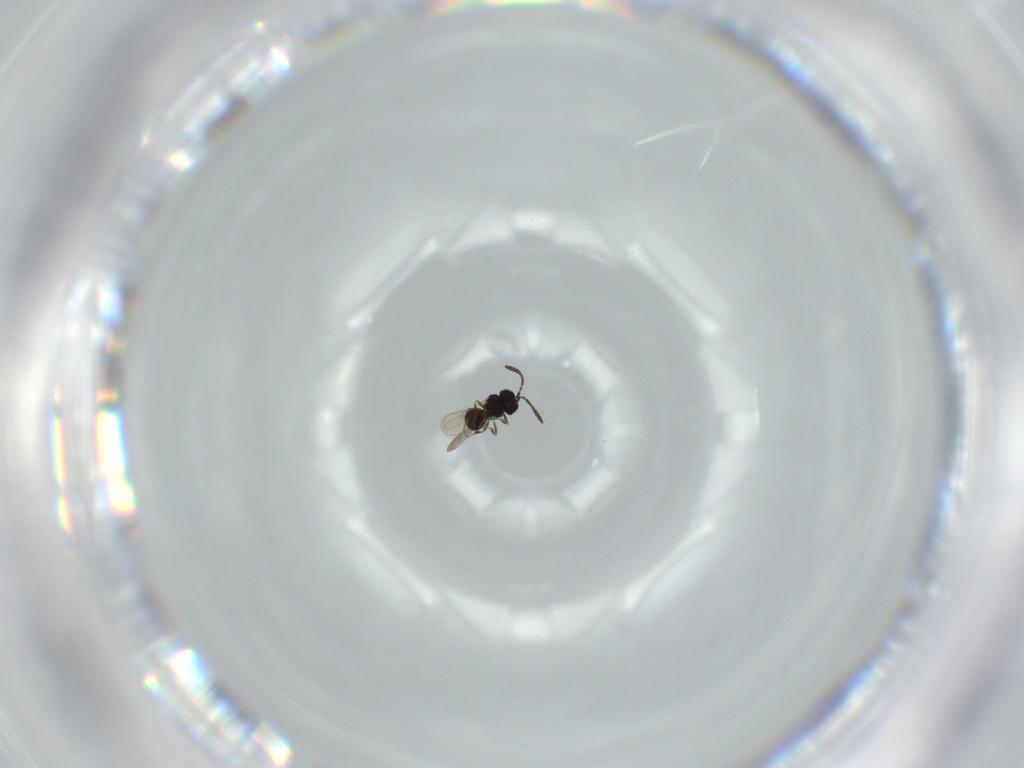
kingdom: Animalia
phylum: Arthropoda
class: Insecta
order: Hymenoptera
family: Scelionidae
